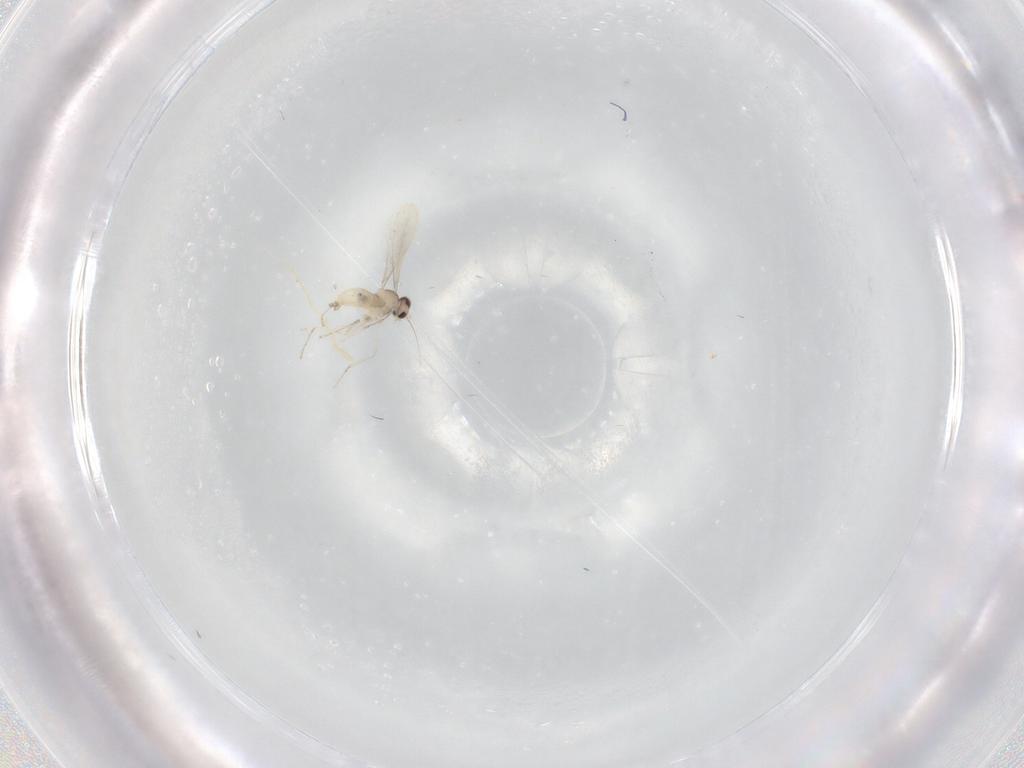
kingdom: Animalia
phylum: Arthropoda
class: Insecta
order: Diptera
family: Cecidomyiidae
